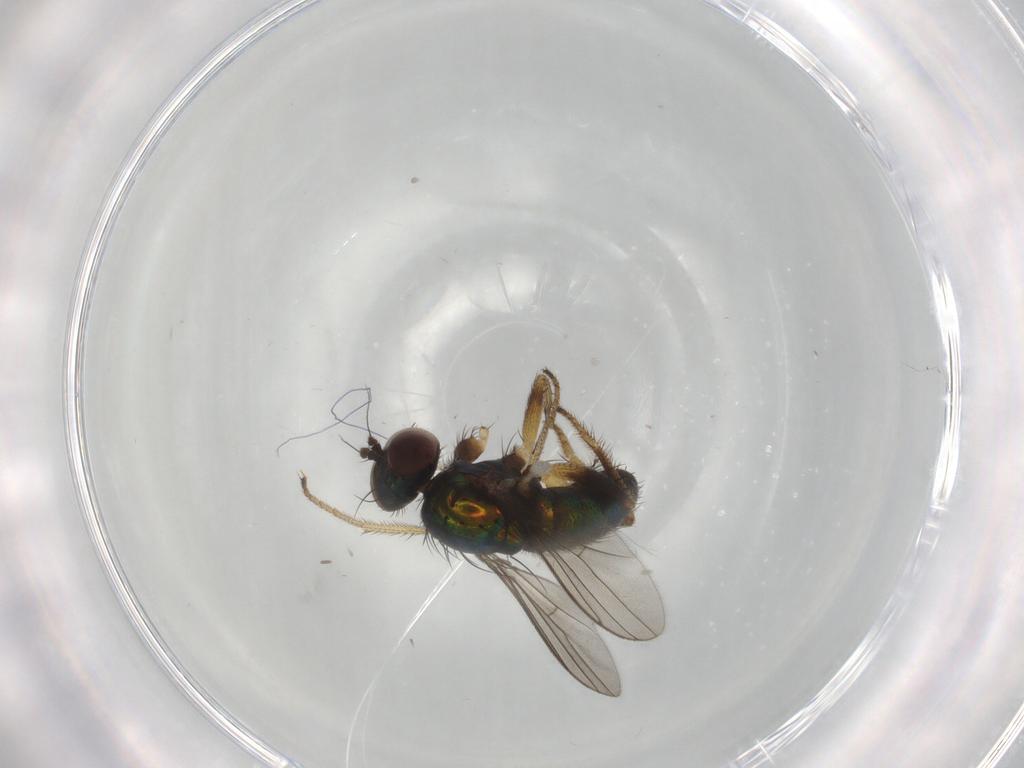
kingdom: Animalia
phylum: Arthropoda
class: Insecta
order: Diptera
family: Dolichopodidae
